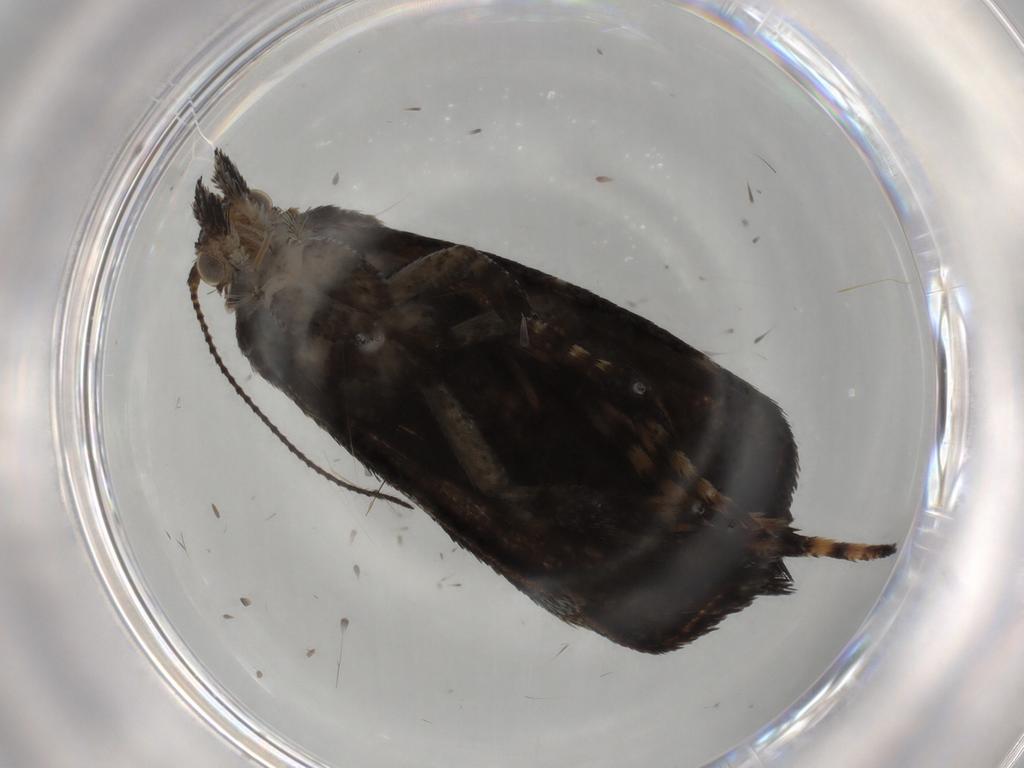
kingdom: Animalia
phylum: Arthropoda
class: Insecta
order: Lepidoptera
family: Choreutidae
